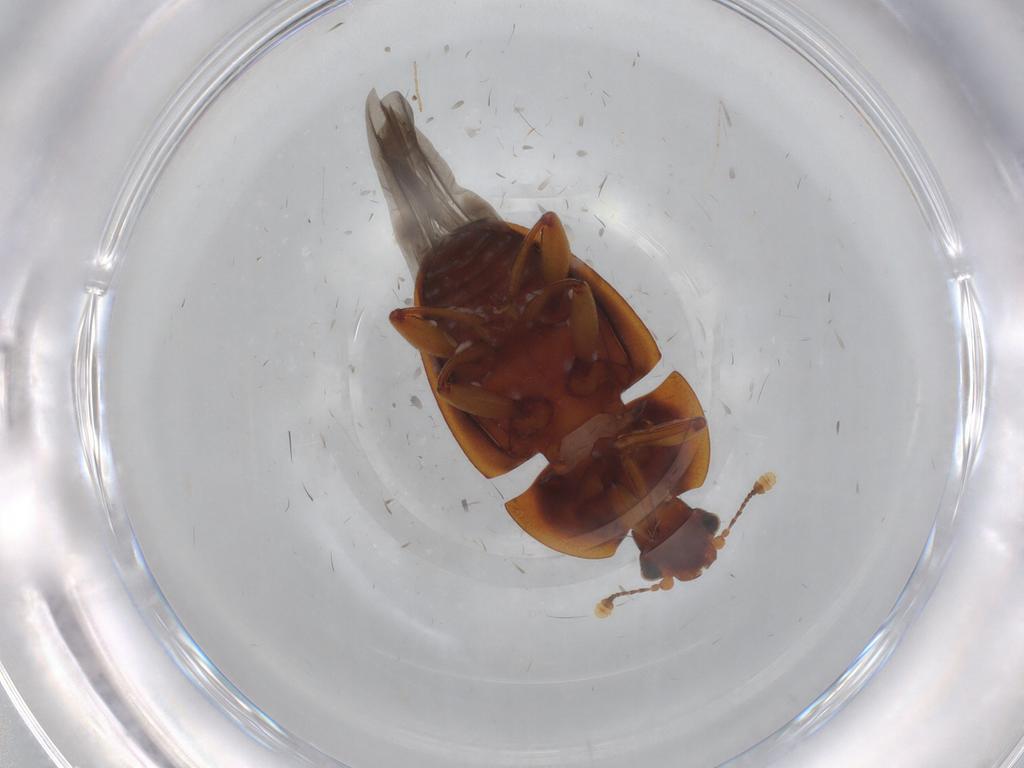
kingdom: Animalia
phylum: Arthropoda
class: Insecta
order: Coleoptera
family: Nitidulidae
